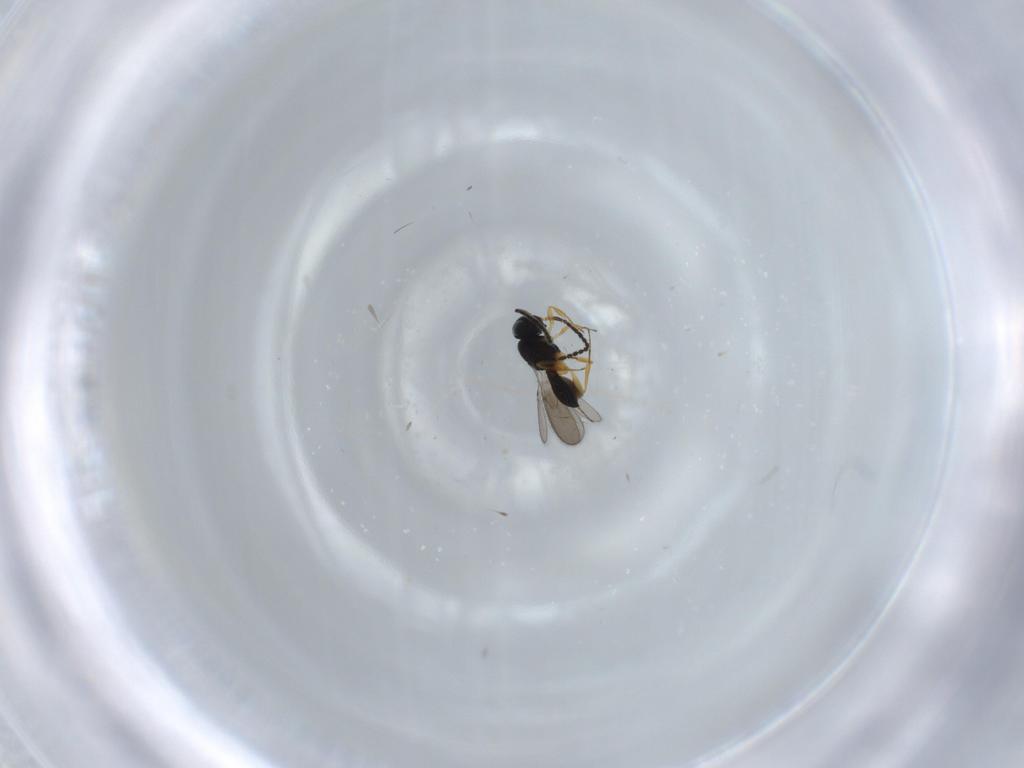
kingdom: Animalia
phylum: Arthropoda
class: Insecta
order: Hymenoptera
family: Scelionidae
